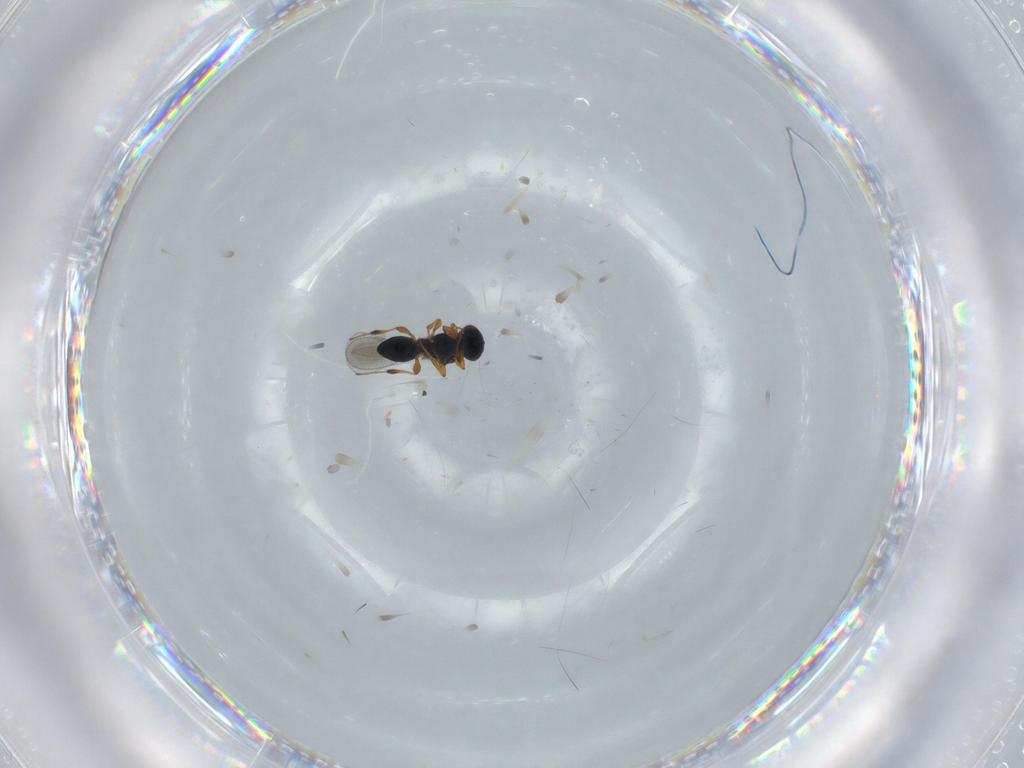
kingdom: Animalia
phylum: Arthropoda
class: Insecta
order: Hymenoptera
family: Platygastridae
